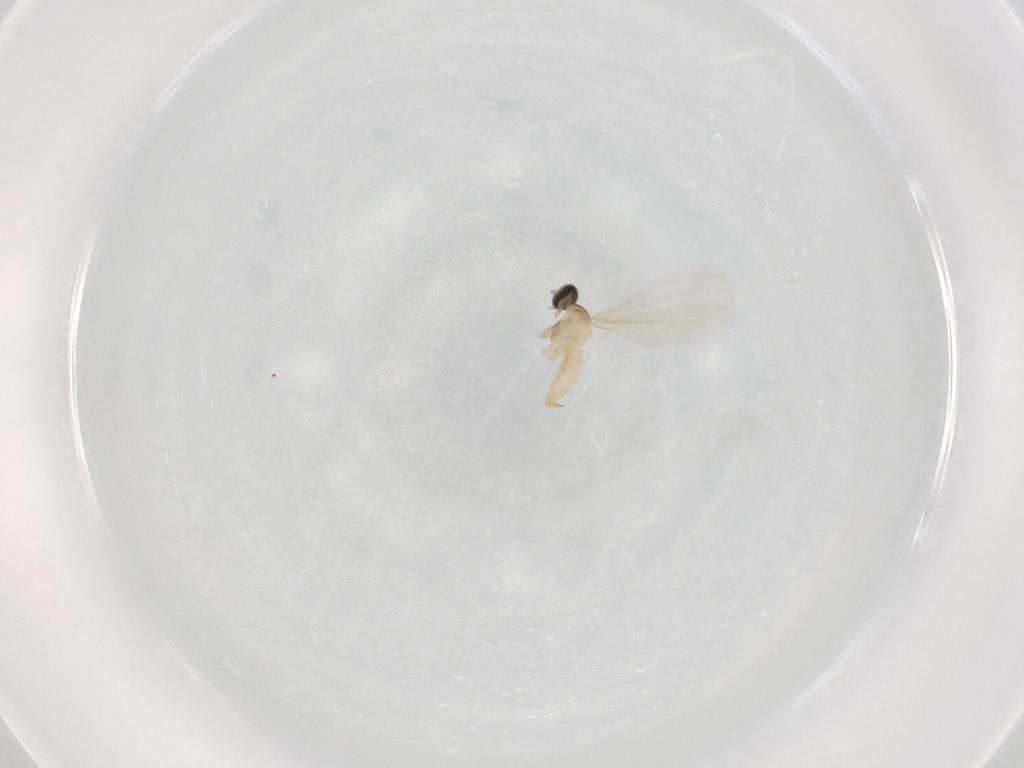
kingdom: Animalia
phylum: Arthropoda
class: Insecta
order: Diptera
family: Cecidomyiidae
